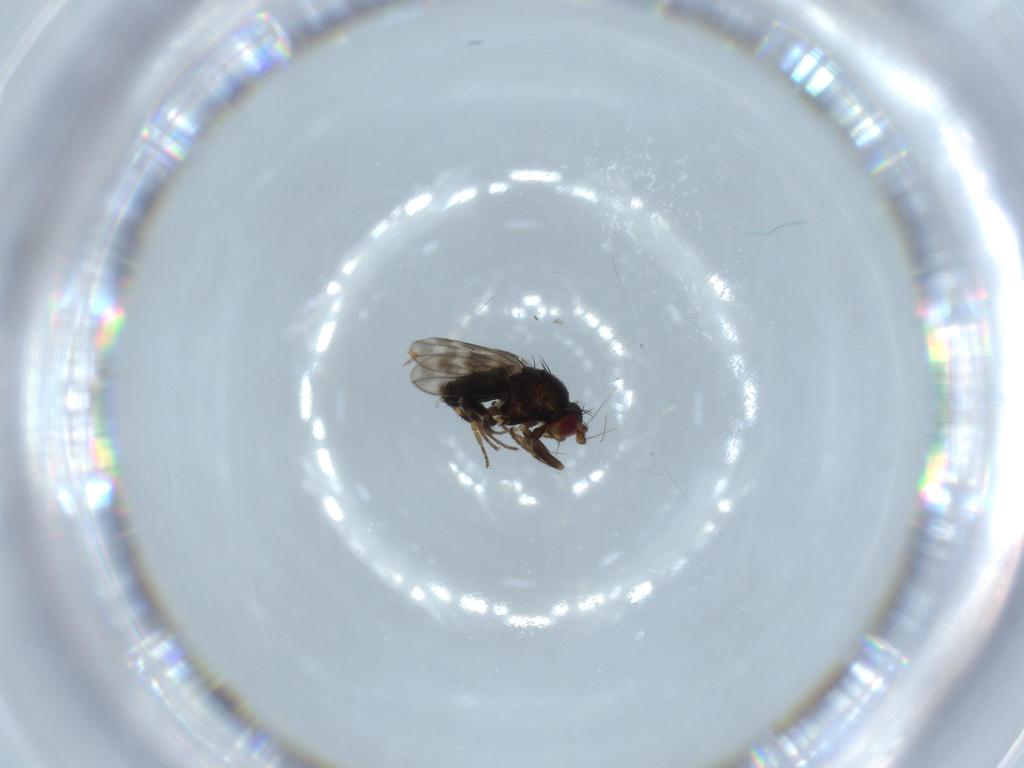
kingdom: Animalia
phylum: Arthropoda
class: Insecta
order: Diptera
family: Sphaeroceridae
